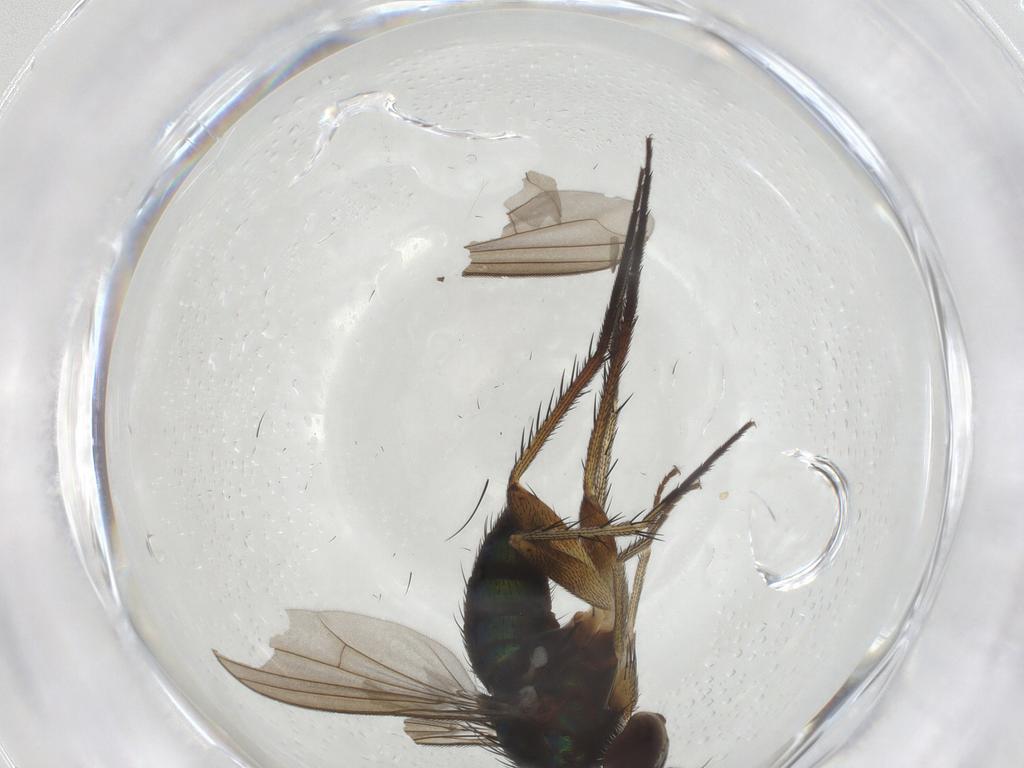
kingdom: Animalia
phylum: Arthropoda
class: Insecta
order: Diptera
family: Dolichopodidae
